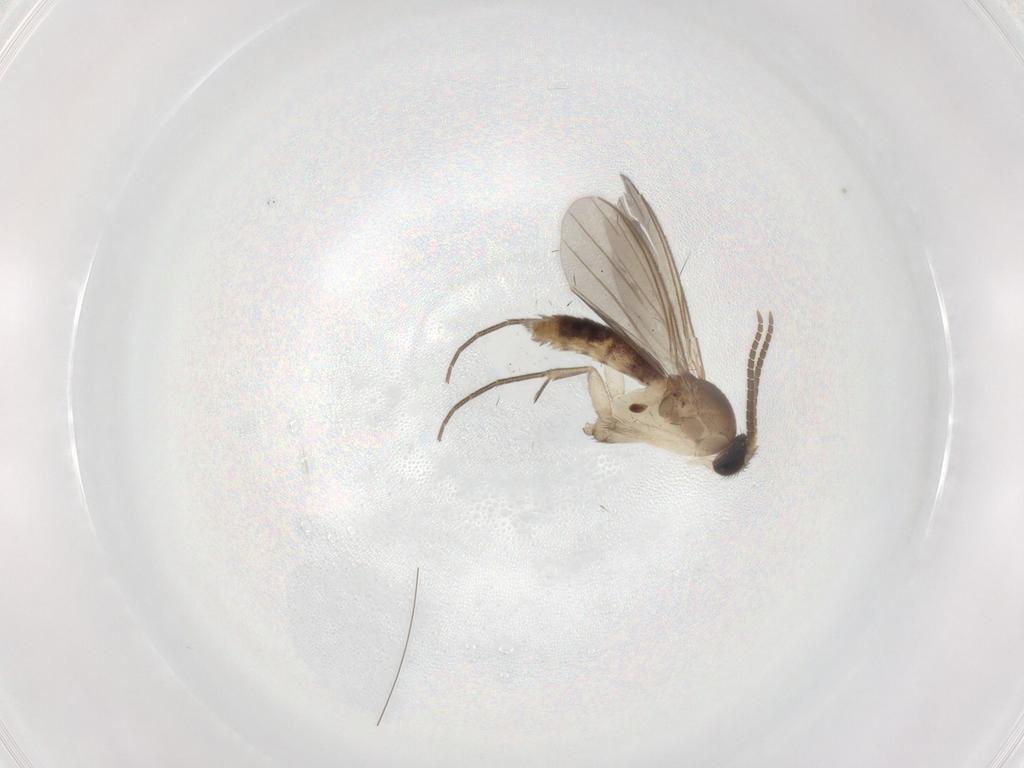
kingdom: Animalia
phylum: Arthropoda
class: Insecta
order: Diptera
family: Mycetophilidae
